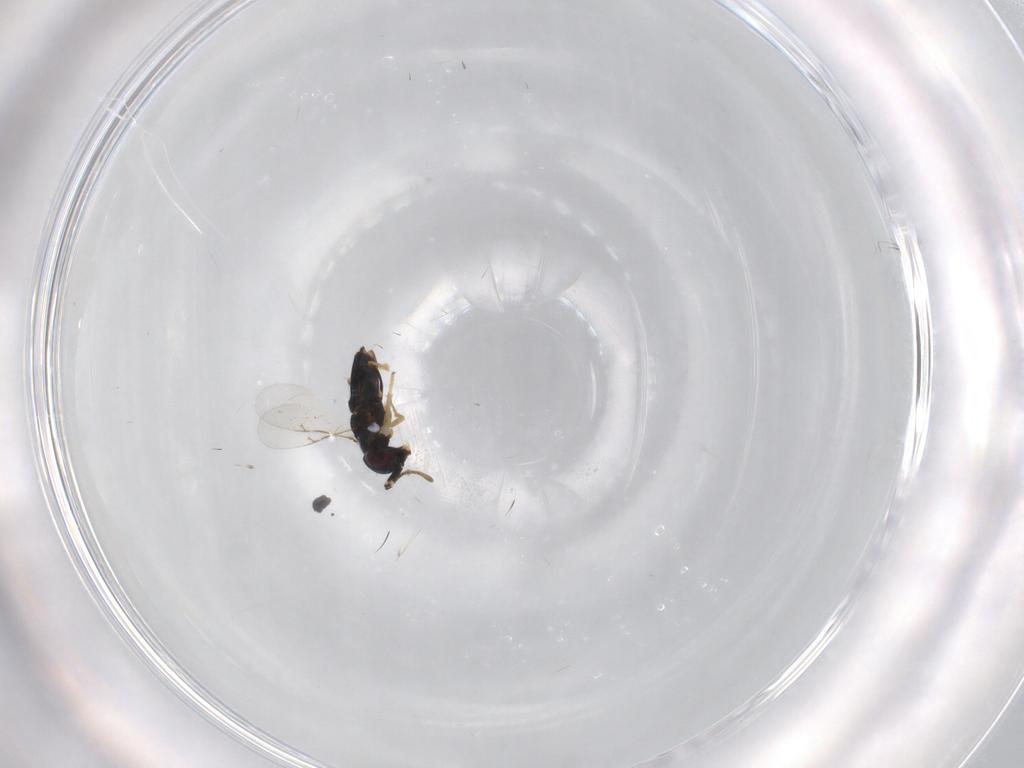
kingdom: Animalia
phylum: Arthropoda
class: Insecta
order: Hymenoptera
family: Encyrtidae
